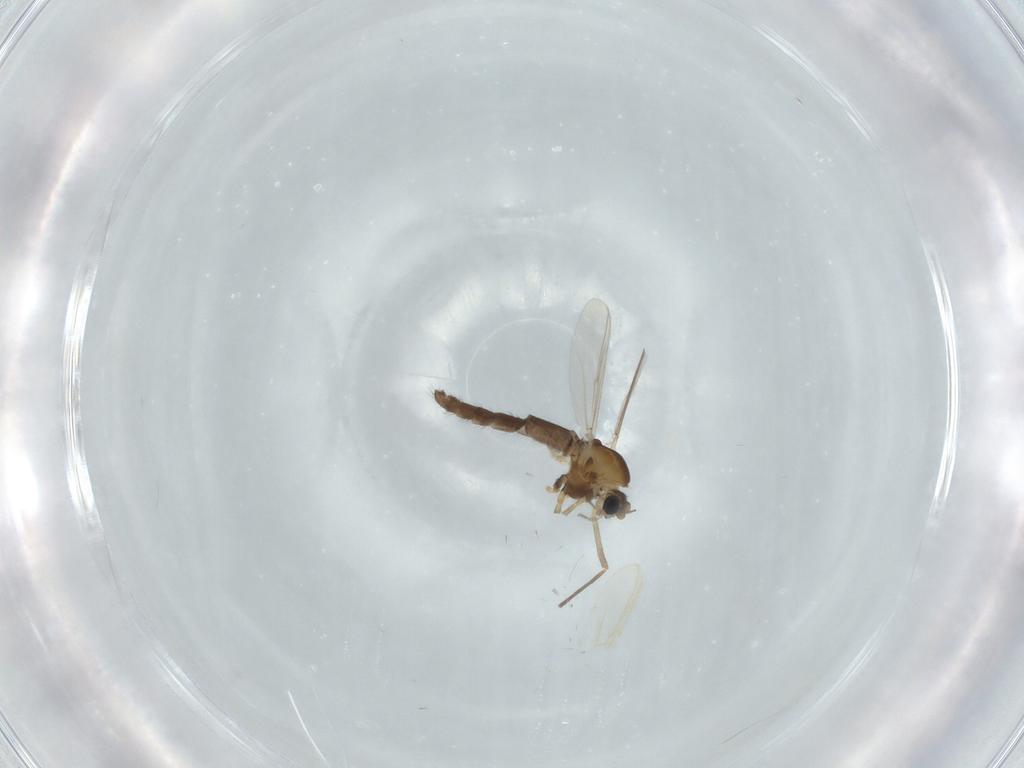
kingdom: Animalia
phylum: Arthropoda
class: Insecta
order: Diptera
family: Chironomidae
